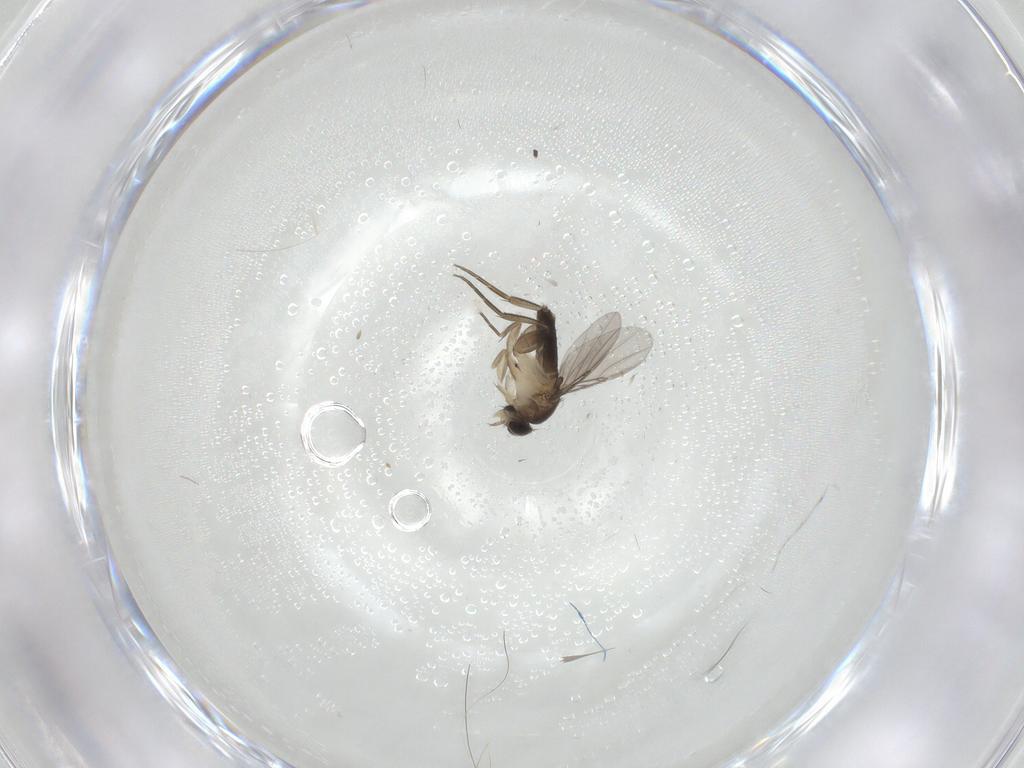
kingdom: Animalia
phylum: Arthropoda
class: Insecta
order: Diptera
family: Phoridae
